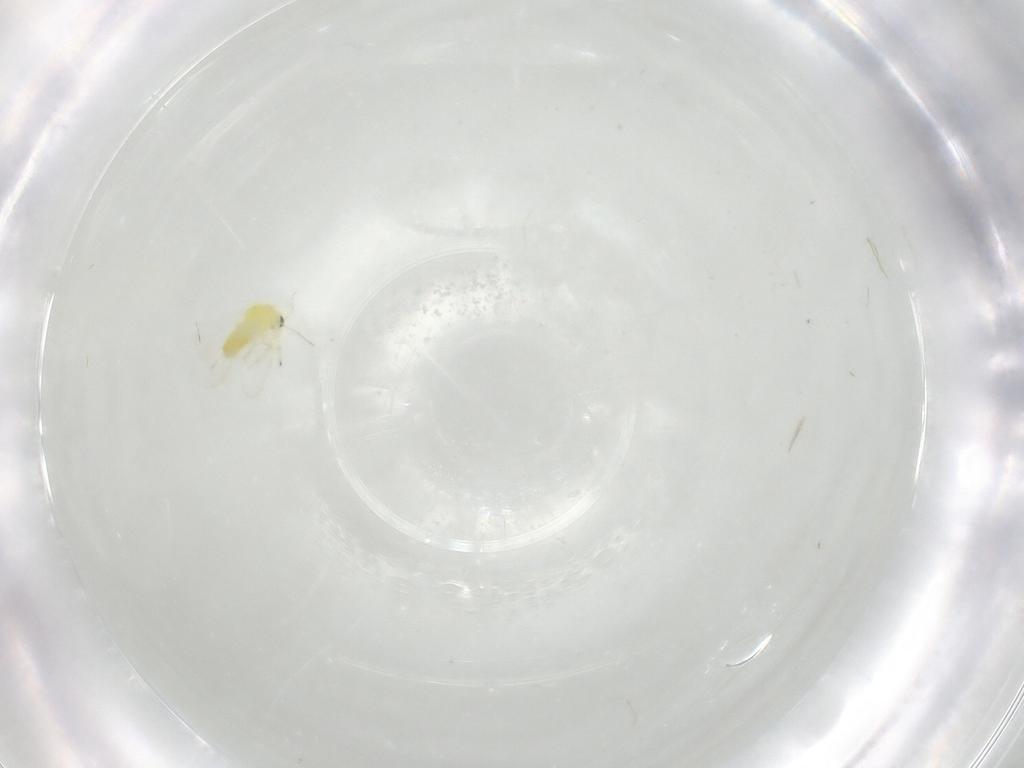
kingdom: Animalia
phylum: Arthropoda
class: Insecta
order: Hemiptera
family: Aleyrodidae
